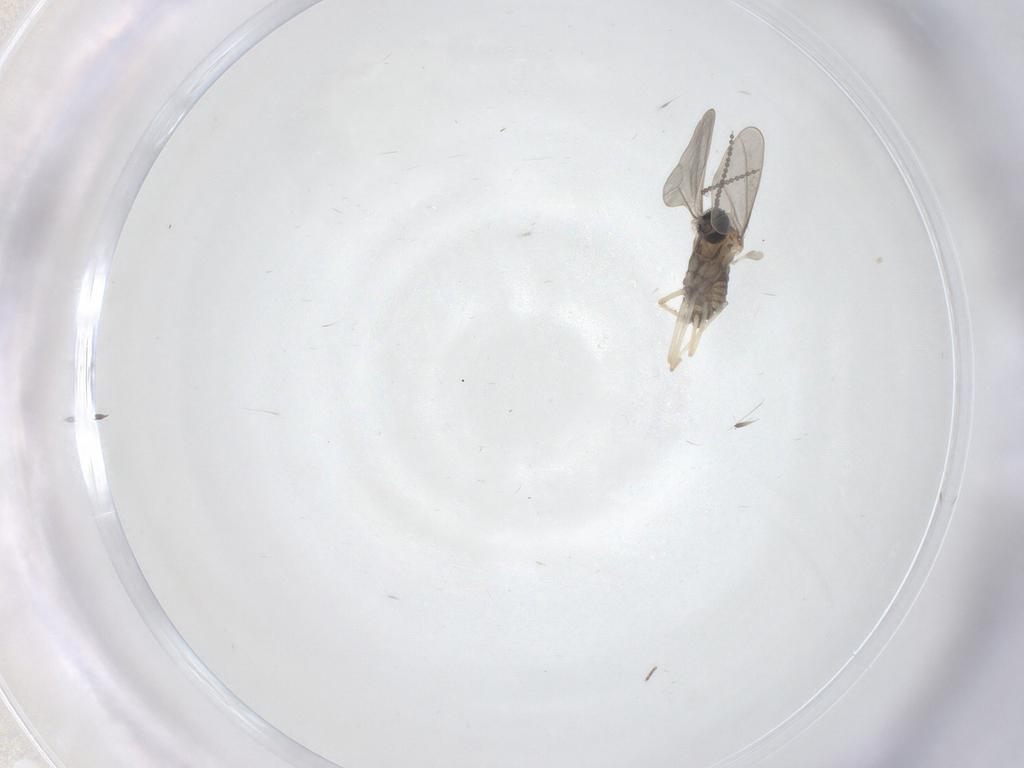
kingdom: Animalia
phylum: Arthropoda
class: Insecta
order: Diptera
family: Cecidomyiidae
